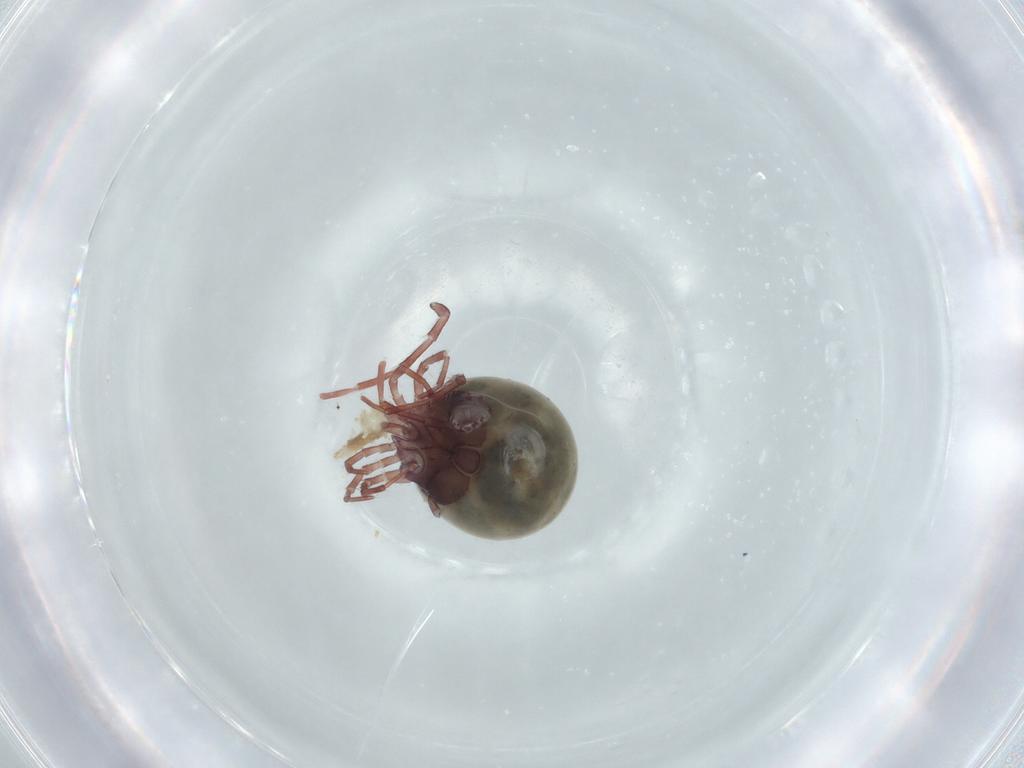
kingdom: Animalia
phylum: Arthropoda
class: Arachnida
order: Trombidiformes
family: Lebertiidae
